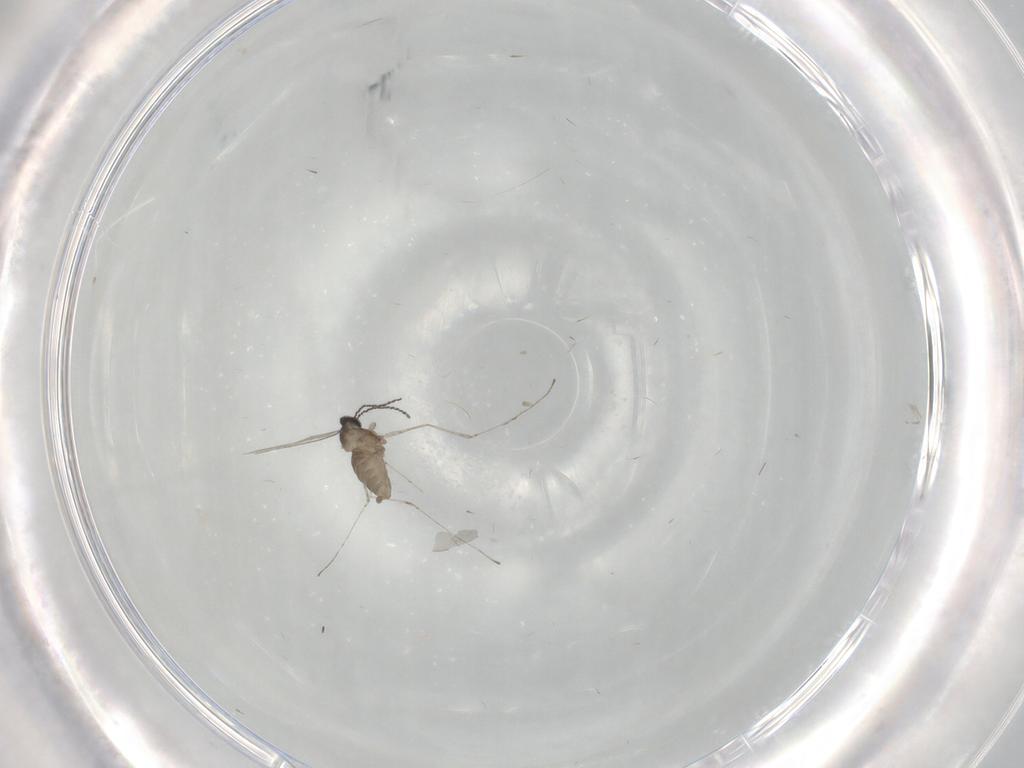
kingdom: Animalia
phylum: Arthropoda
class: Insecta
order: Diptera
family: Cecidomyiidae
